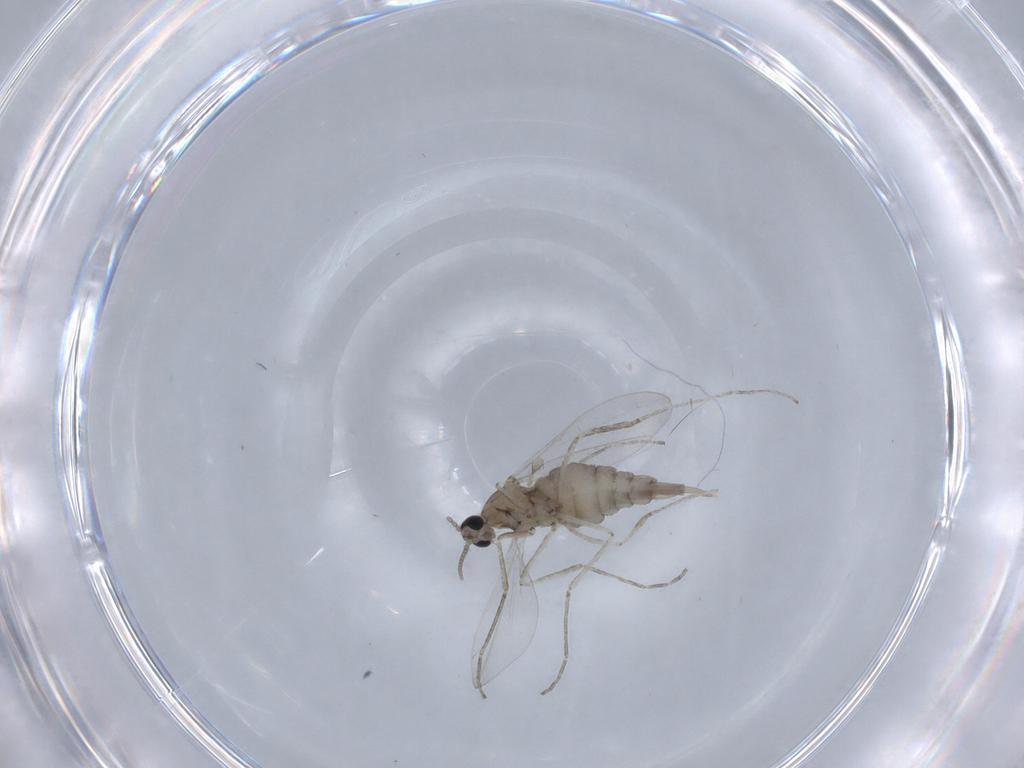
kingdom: Animalia
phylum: Arthropoda
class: Insecta
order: Diptera
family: Cecidomyiidae
